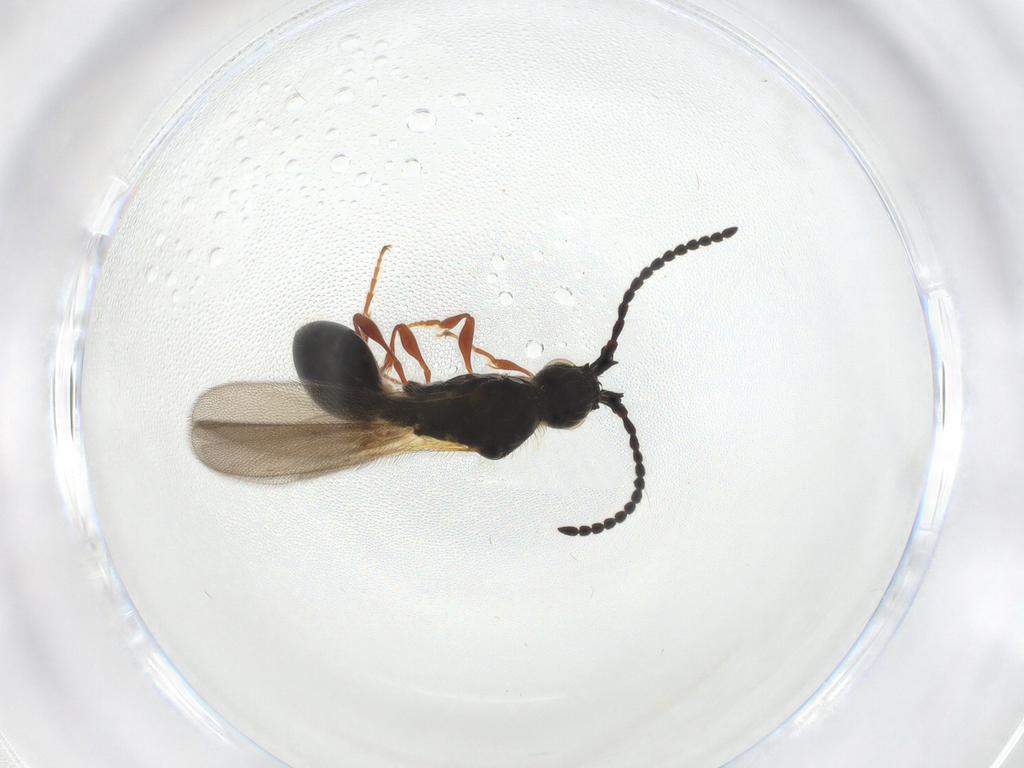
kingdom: Animalia
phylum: Arthropoda
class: Insecta
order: Hymenoptera
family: Diapriidae
